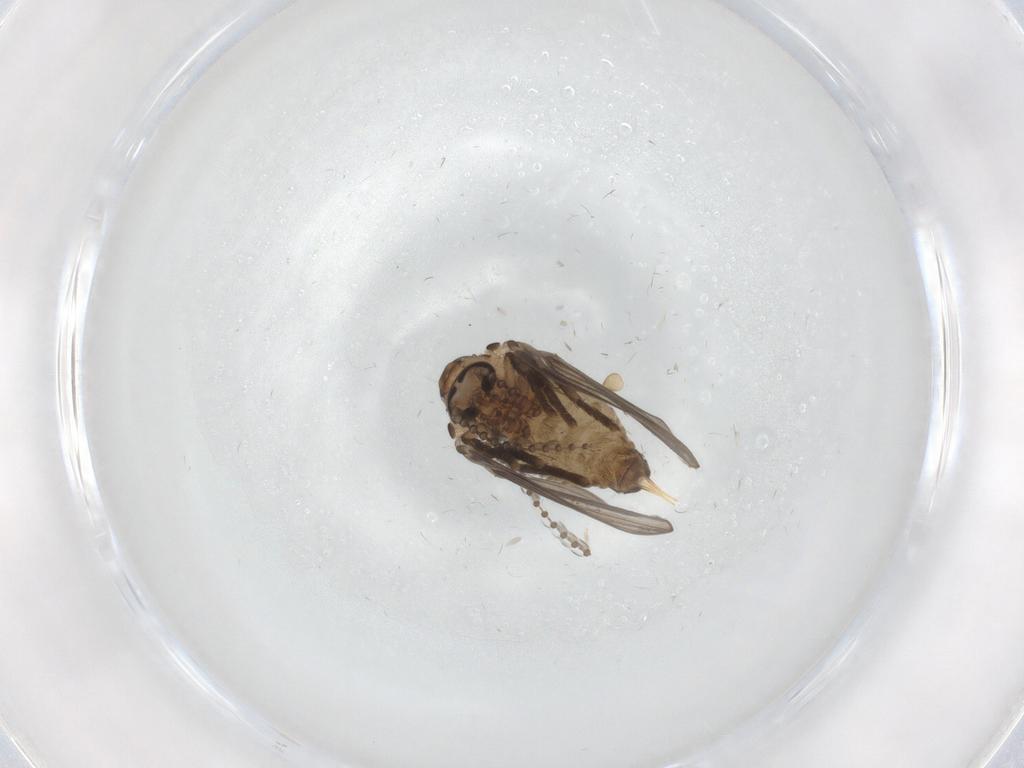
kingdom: Animalia
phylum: Arthropoda
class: Insecta
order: Diptera
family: Psychodidae
